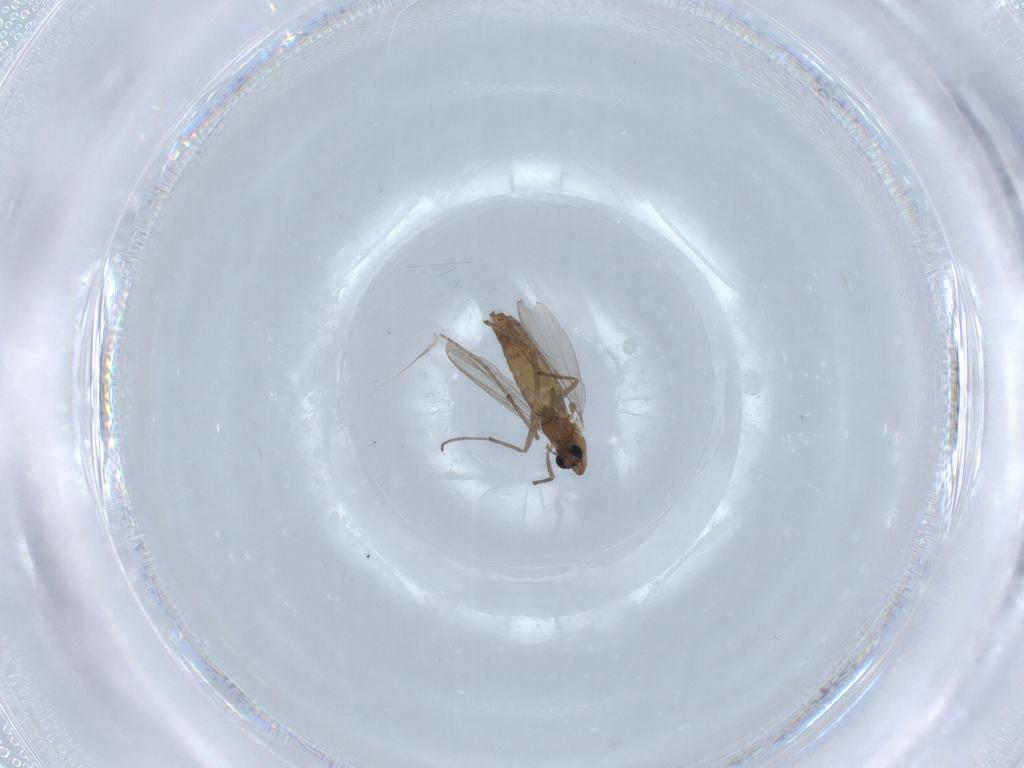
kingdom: Animalia
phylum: Arthropoda
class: Insecta
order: Diptera
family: Chironomidae
